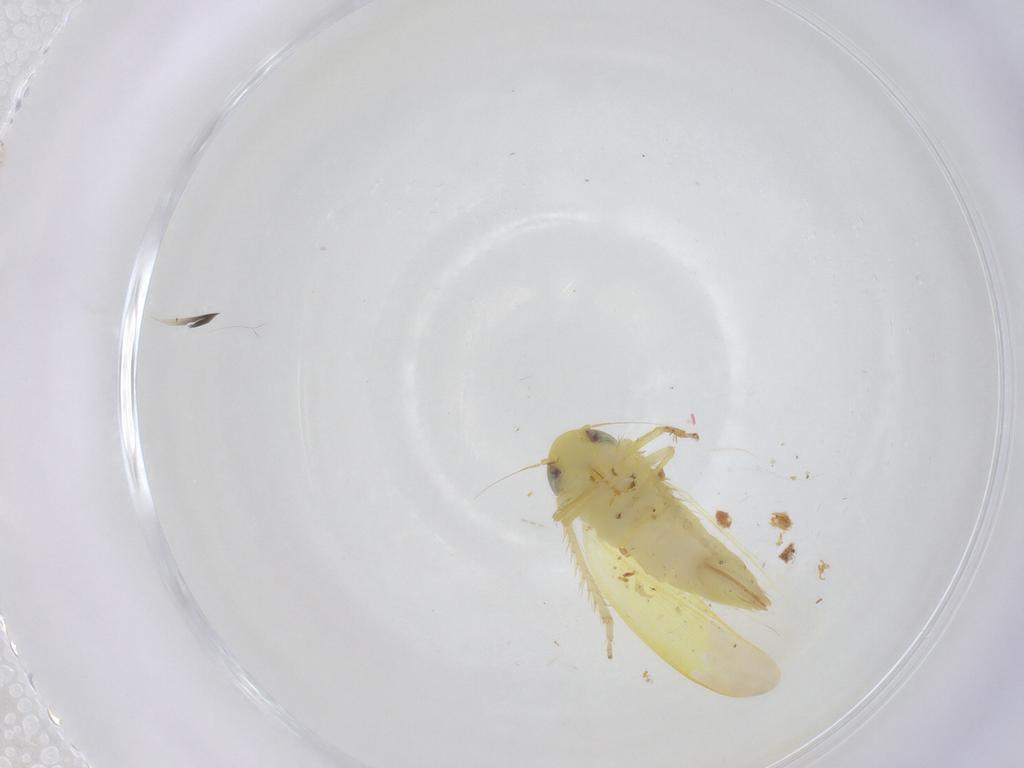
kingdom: Animalia
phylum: Arthropoda
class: Insecta
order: Hemiptera
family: Cicadellidae
